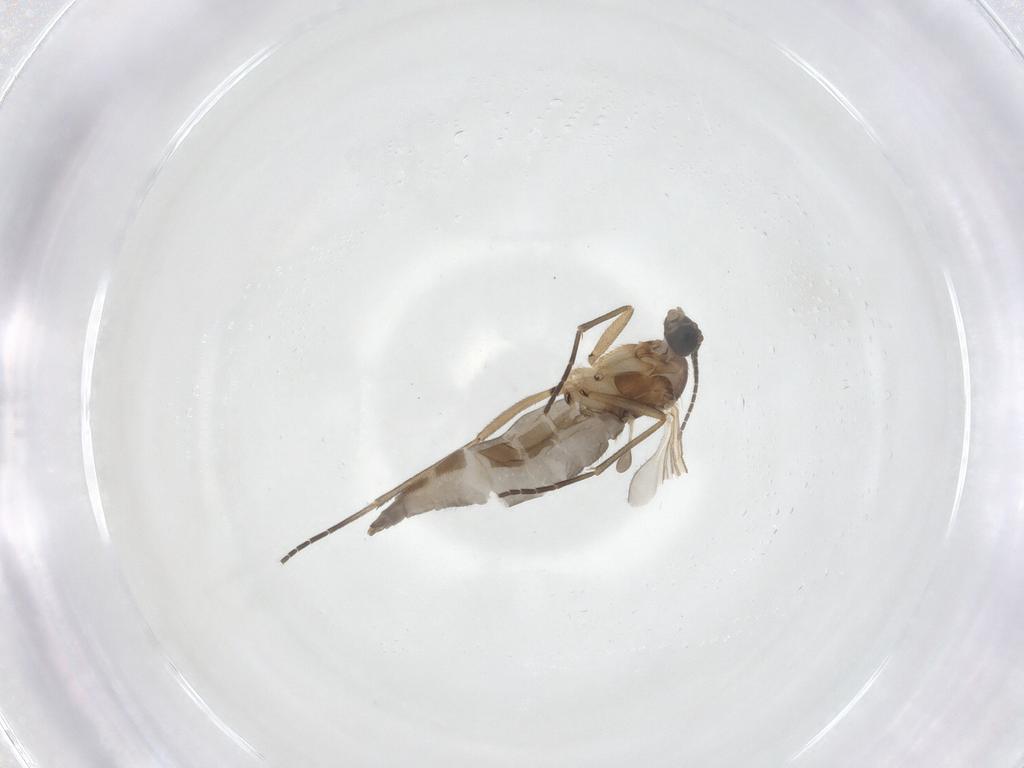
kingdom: Animalia
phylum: Arthropoda
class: Insecta
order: Diptera
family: Sciaridae
